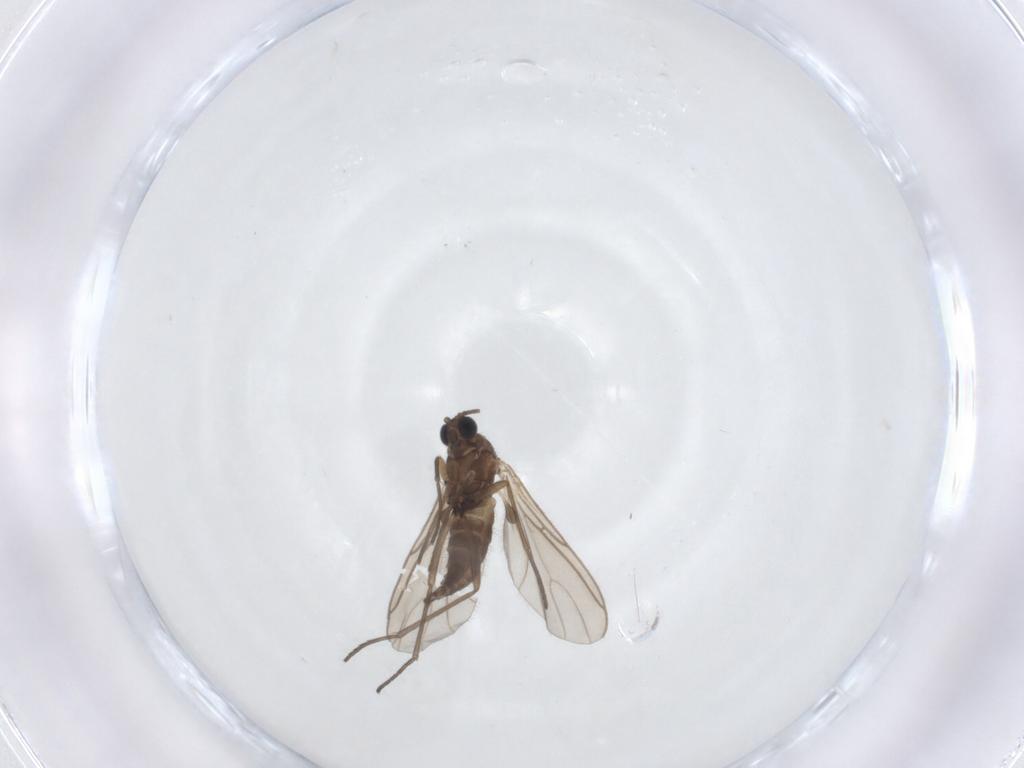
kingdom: Animalia
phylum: Arthropoda
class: Insecta
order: Diptera
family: Sciaridae
